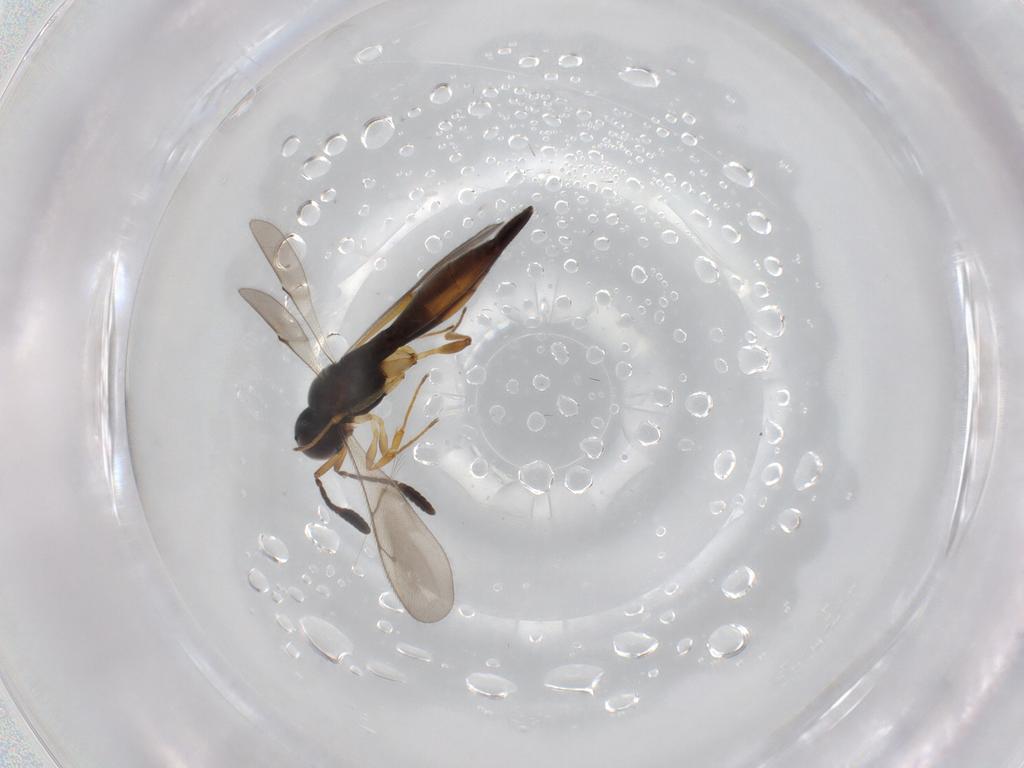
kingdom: Animalia
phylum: Arthropoda
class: Insecta
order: Hymenoptera
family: Scelionidae
